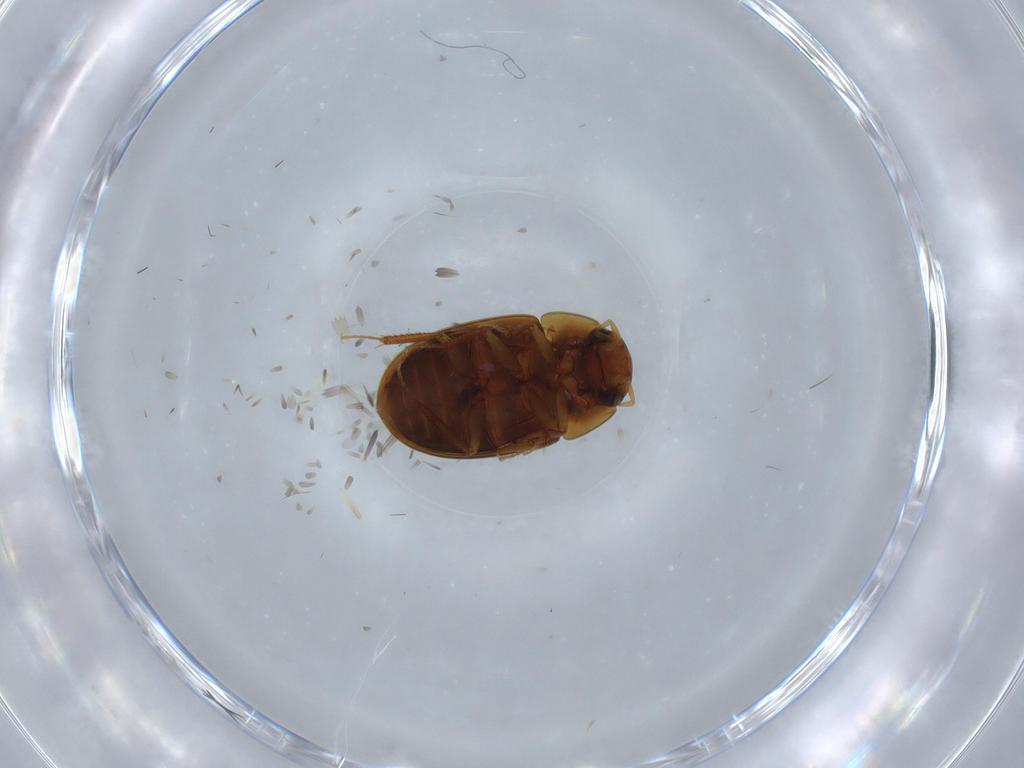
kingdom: Animalia
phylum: Arthropoda
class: Insecta
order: Coleoptera
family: Coccinellidae
